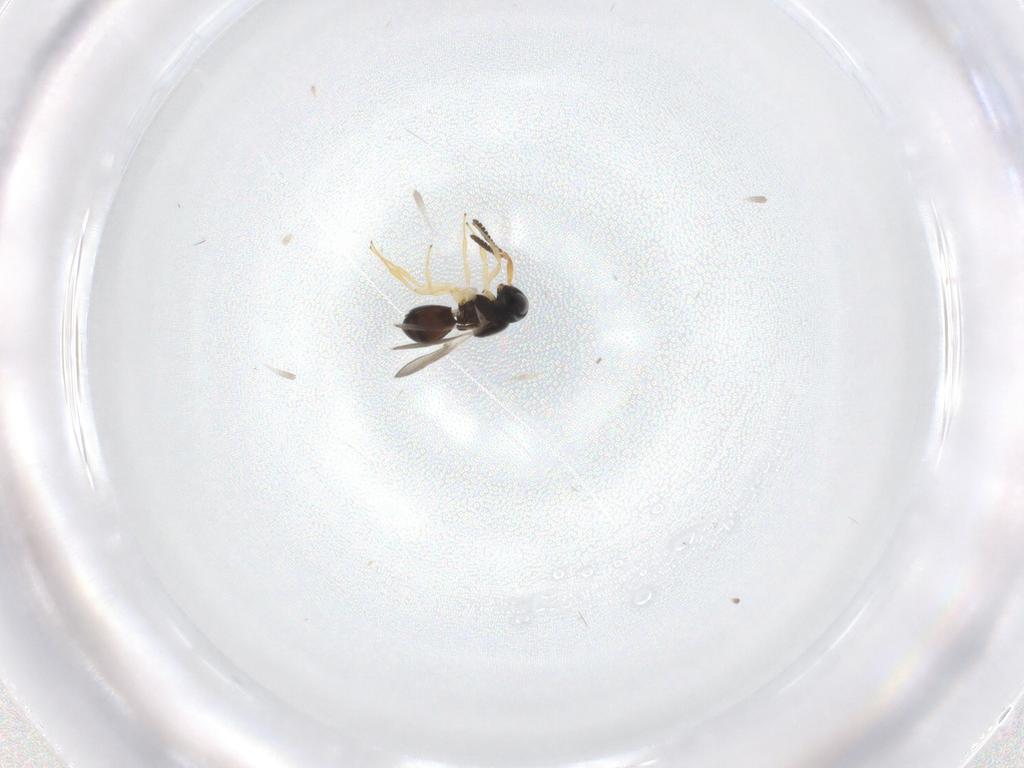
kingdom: Animalia
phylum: Arthropoda
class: Insecta
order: Hymenoptera
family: Scelionidae
